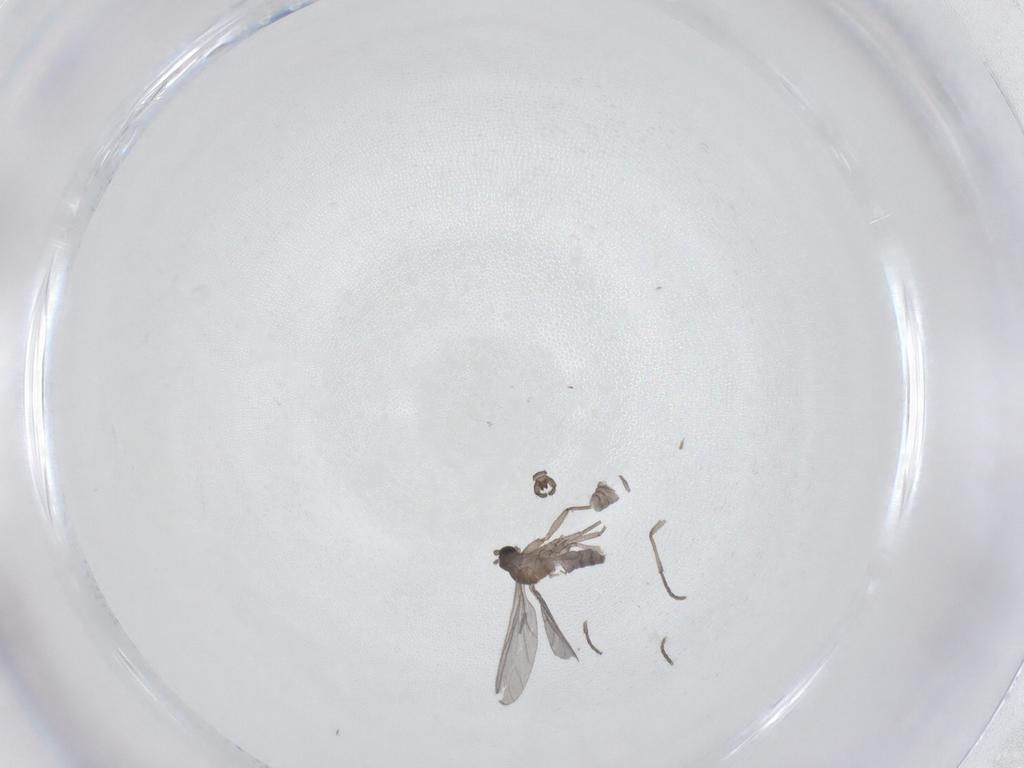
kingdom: Animalia
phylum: Arthropoda
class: Insecta
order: Diptera
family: Sciaridae
